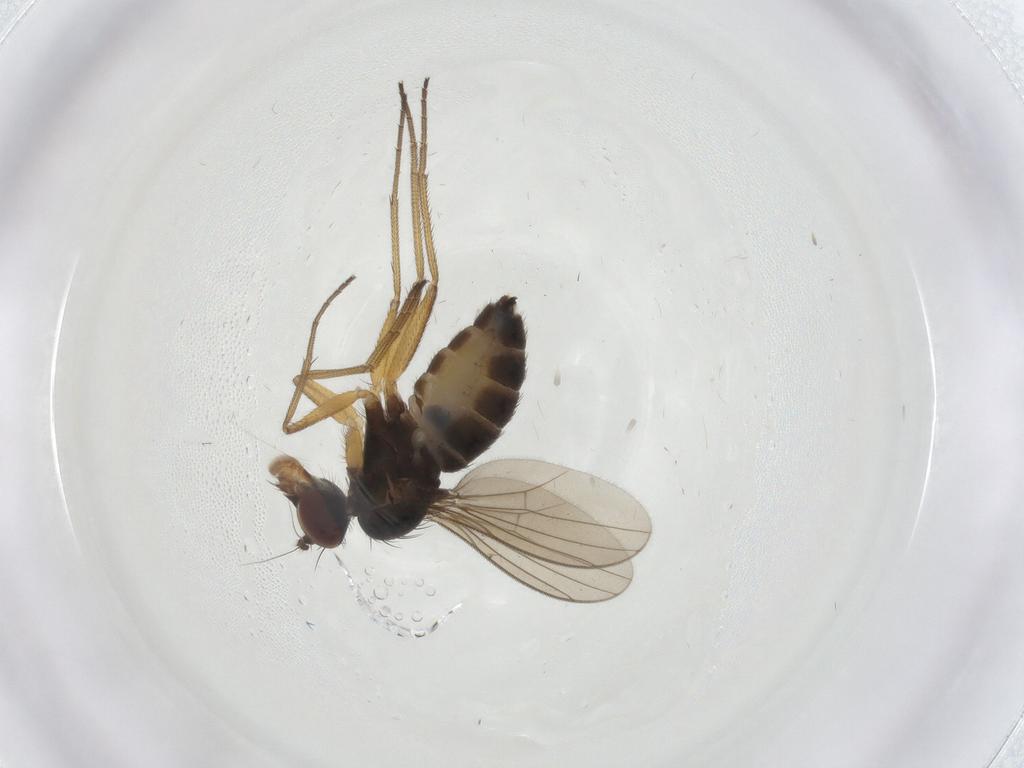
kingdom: Animalia
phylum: Arthropoda
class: Insecta
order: Diptera
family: Dolichopodidae
